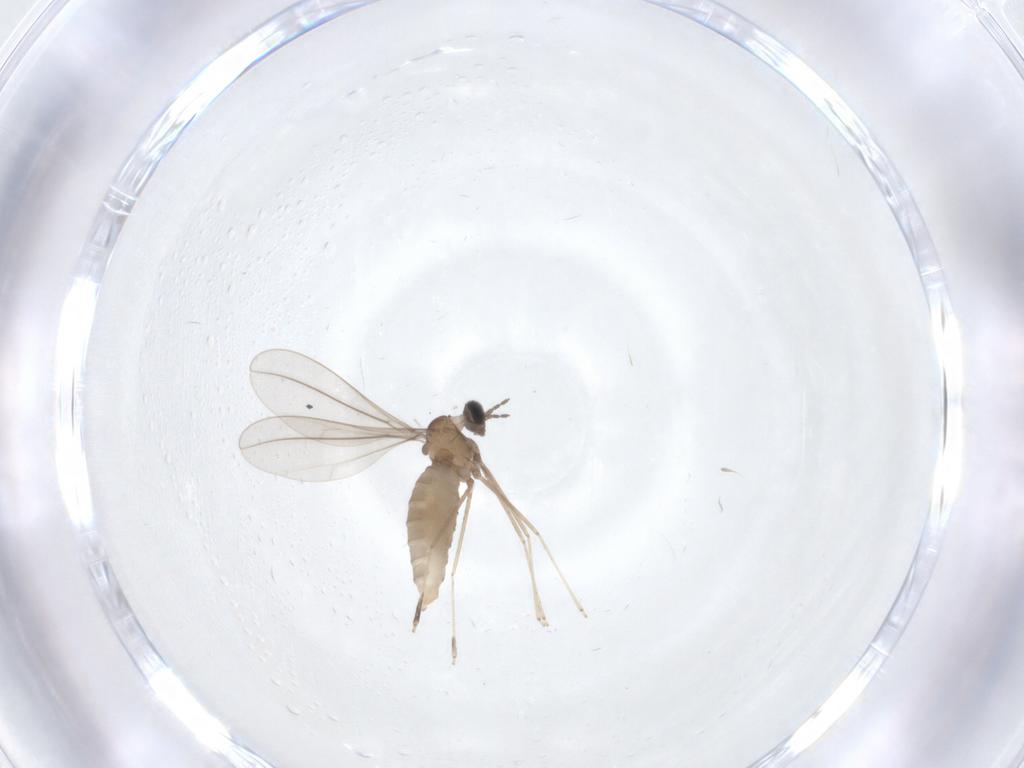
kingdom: Animalia
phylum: Arthropoda
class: Insecta
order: Diptera
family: Cecidomyiidae
